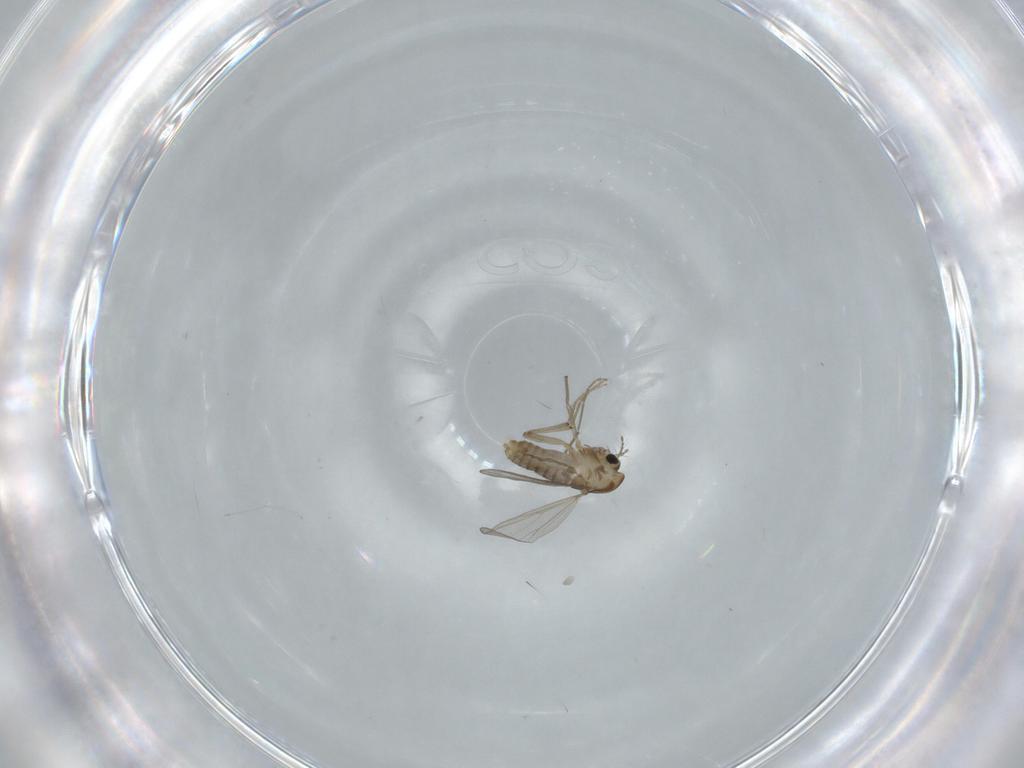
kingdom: Animalia
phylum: Arthropoda
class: Insecta
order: Diptera
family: Chironomidae
